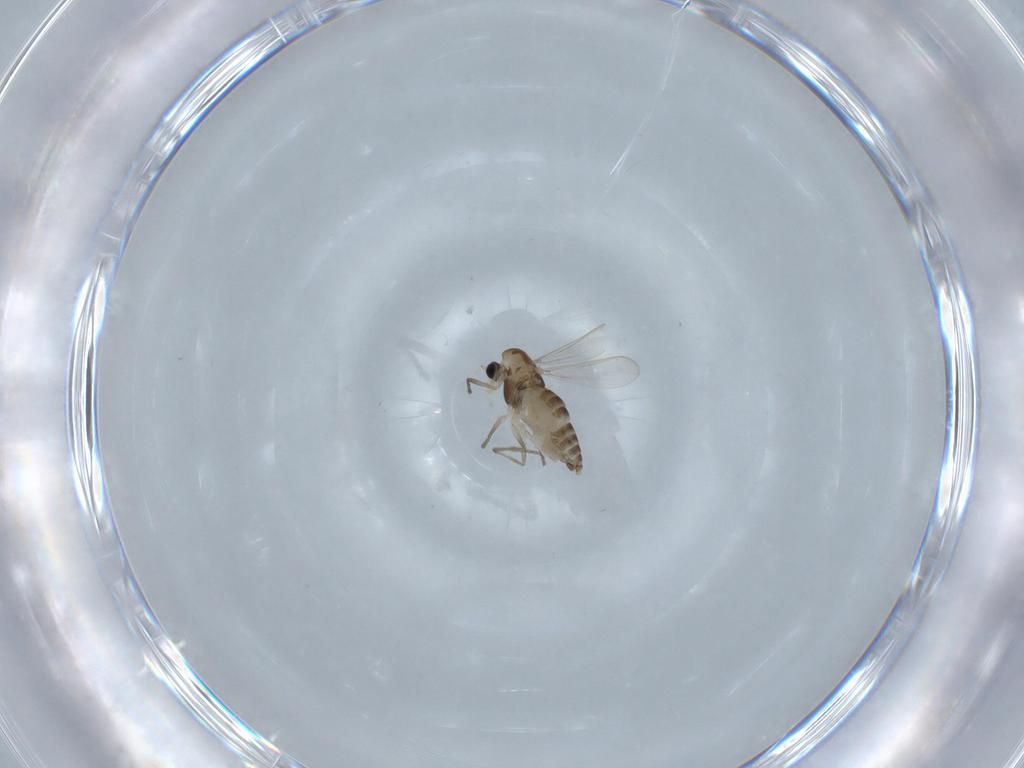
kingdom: Animalia
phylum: Arthropoda
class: Insecta
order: Diptera
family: Chironomidae
